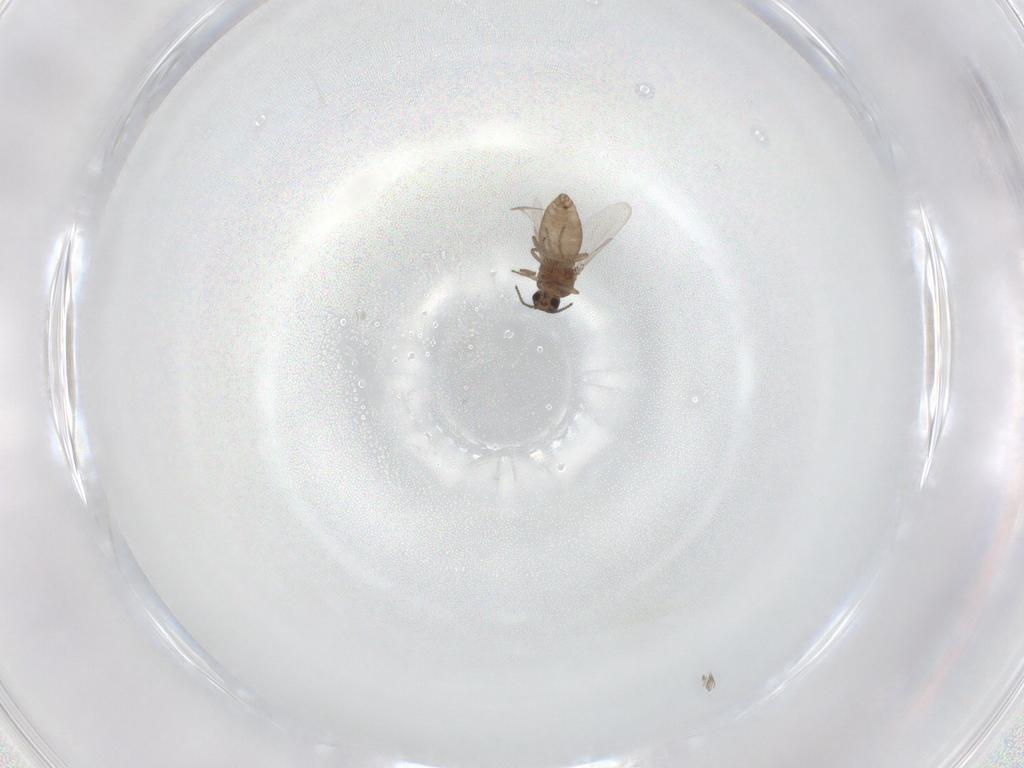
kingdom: Animalia
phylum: Arthropoda
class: Insecta
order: Diptera
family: Ceratopogonidae
